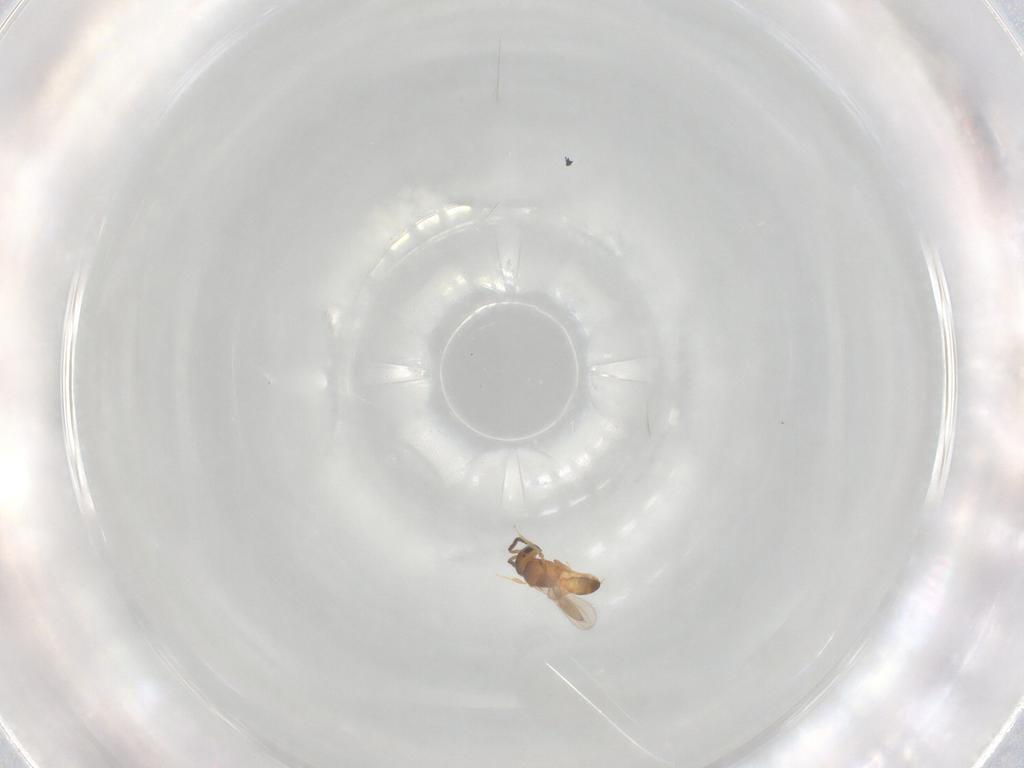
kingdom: Animalia
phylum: Arthropoda
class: Insecta
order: Hymenoptera
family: Scelionidae
